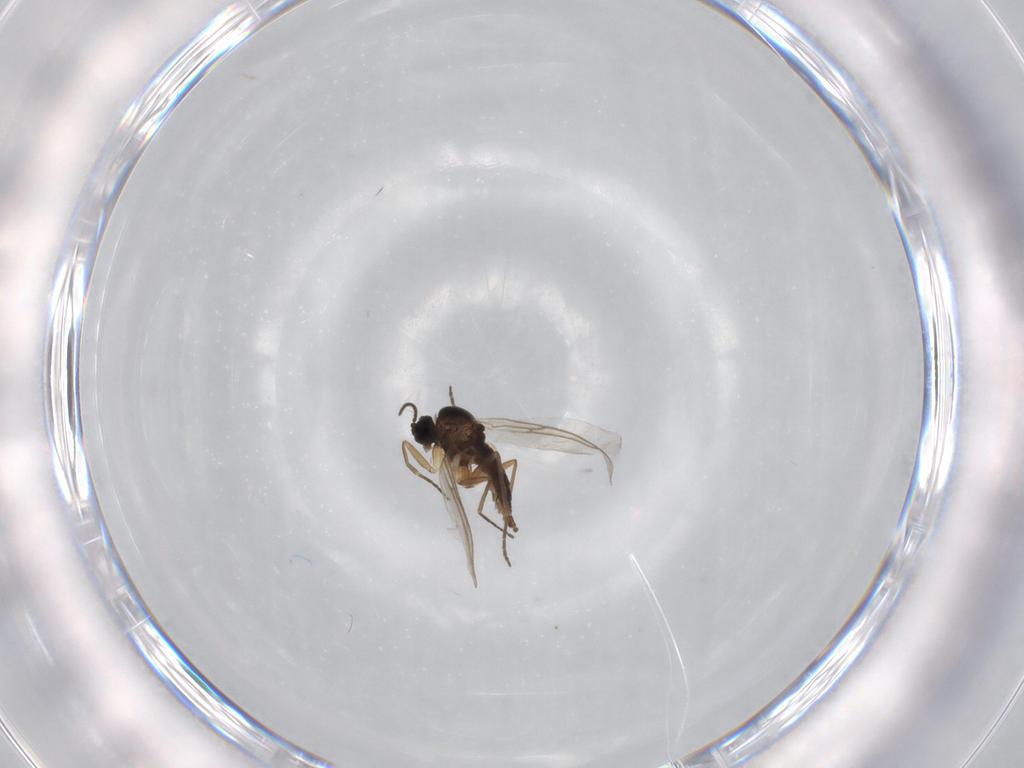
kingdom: Animalia
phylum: Arthropoda
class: Insecta
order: Diptera
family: Sciaridae
